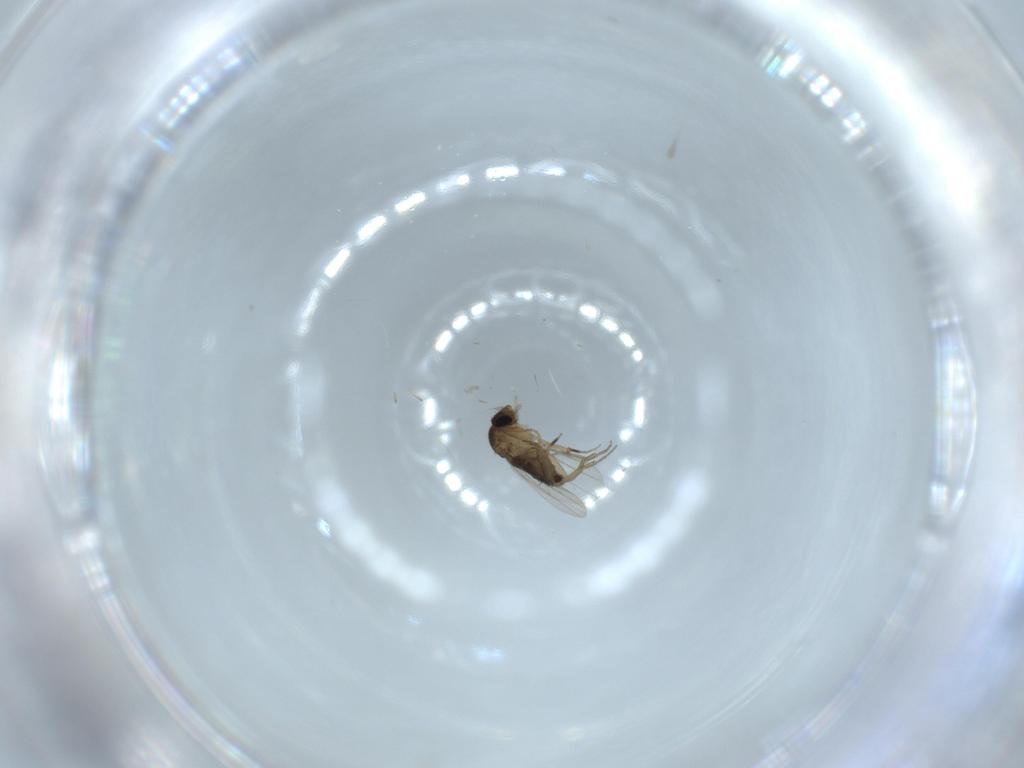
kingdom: Animalia
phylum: Arthropoda
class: Insecta
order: Diptera
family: Phoridae
